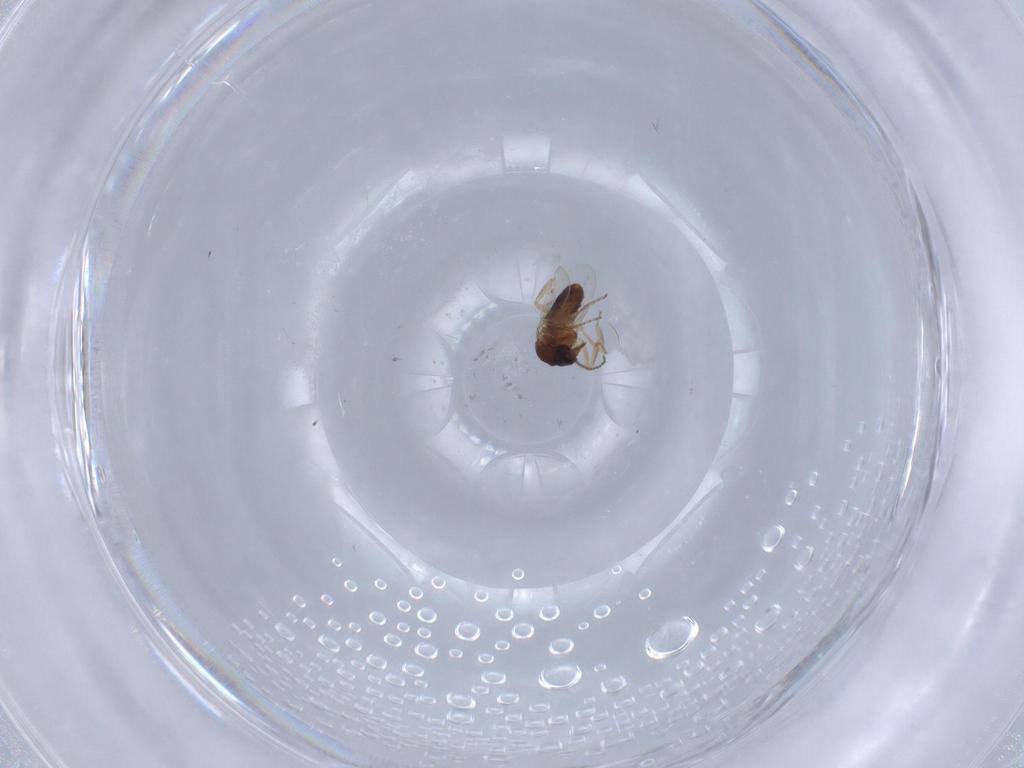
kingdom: Animalia
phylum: Arthropoda
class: Insecta
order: Diptera
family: Ceratopogonidae
